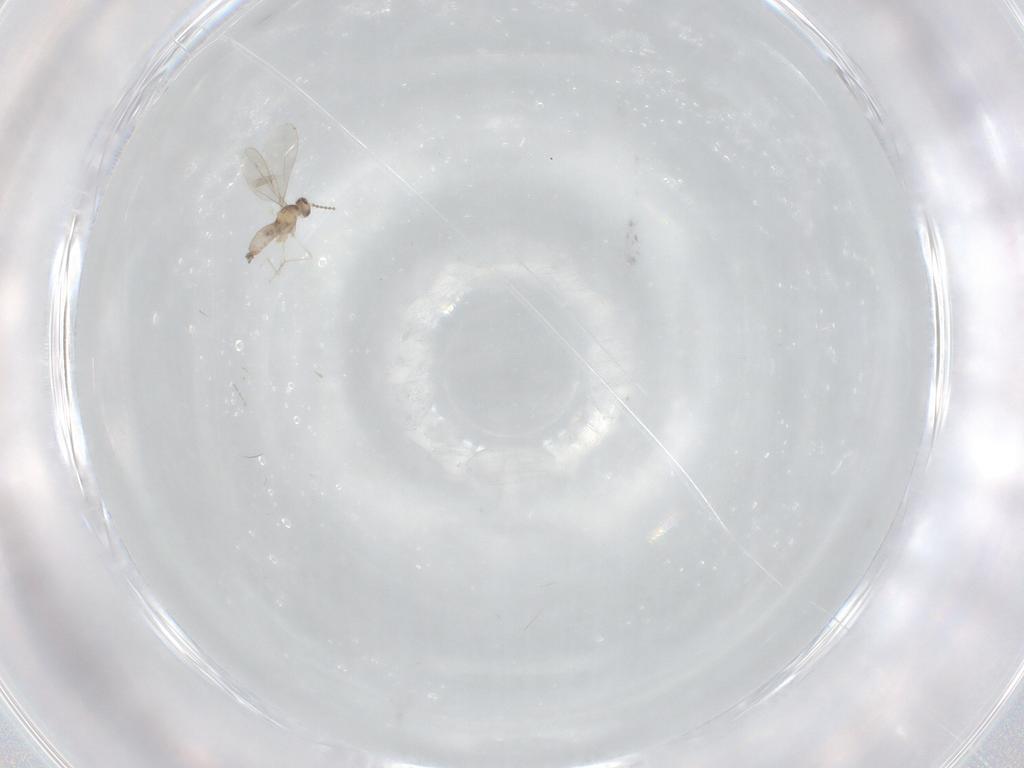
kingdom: Animalia
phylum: Arthropoda
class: Insecta
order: Diptera
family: Cecidomyiidae
